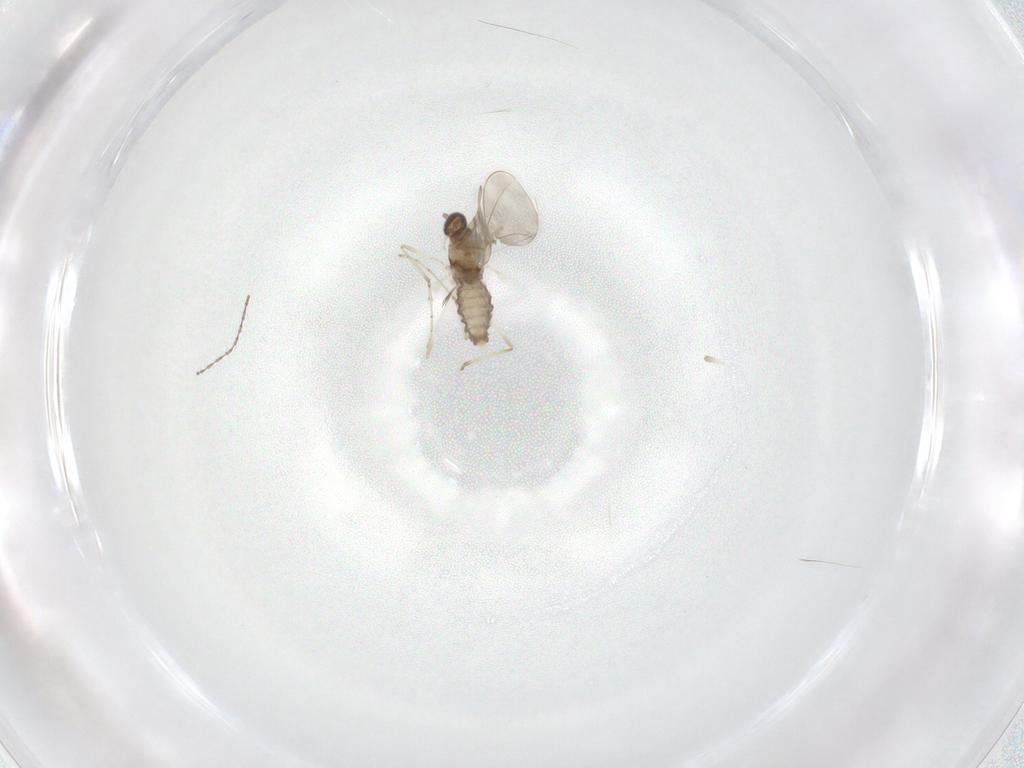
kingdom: Animalia
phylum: Arthropoda
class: Insecta
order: Diptera
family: Cecidomyiidae
